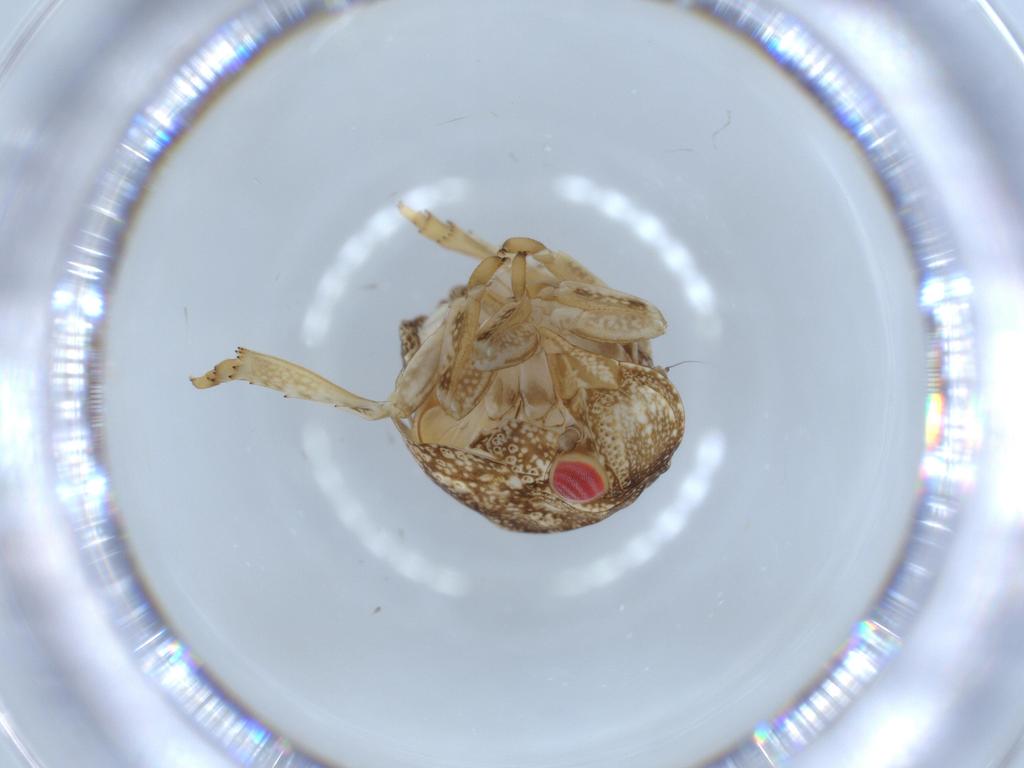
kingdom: Animalia
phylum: Arthropoda
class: Insecta
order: Hemiptera
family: Acanaloniidae
